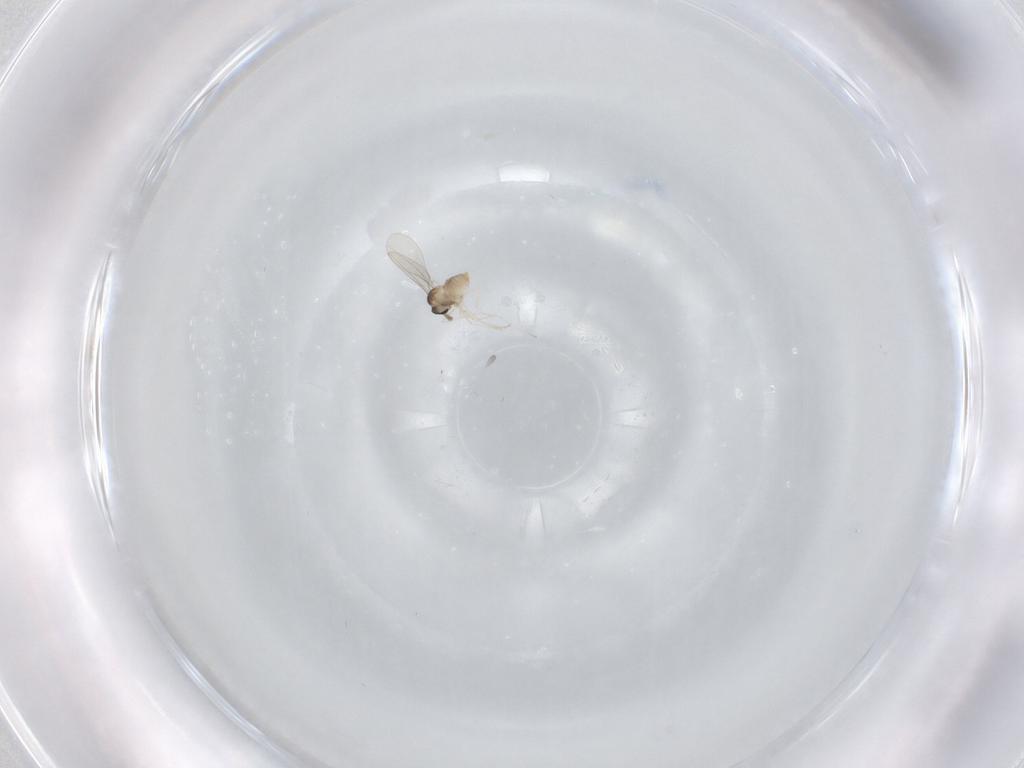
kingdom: Animalia
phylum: Arthropoda
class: Insecta
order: Diptera
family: Cecidomyiidae
